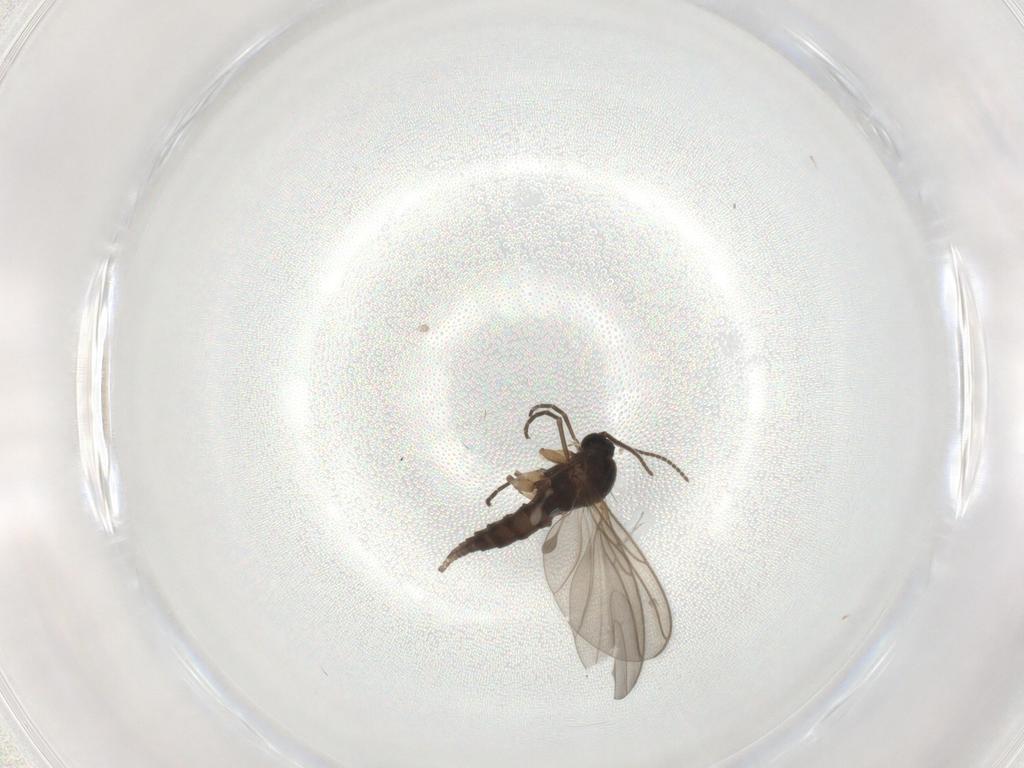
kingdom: Animalia
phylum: Arthropoda
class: Insecta
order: Diptera
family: Sciaridae
